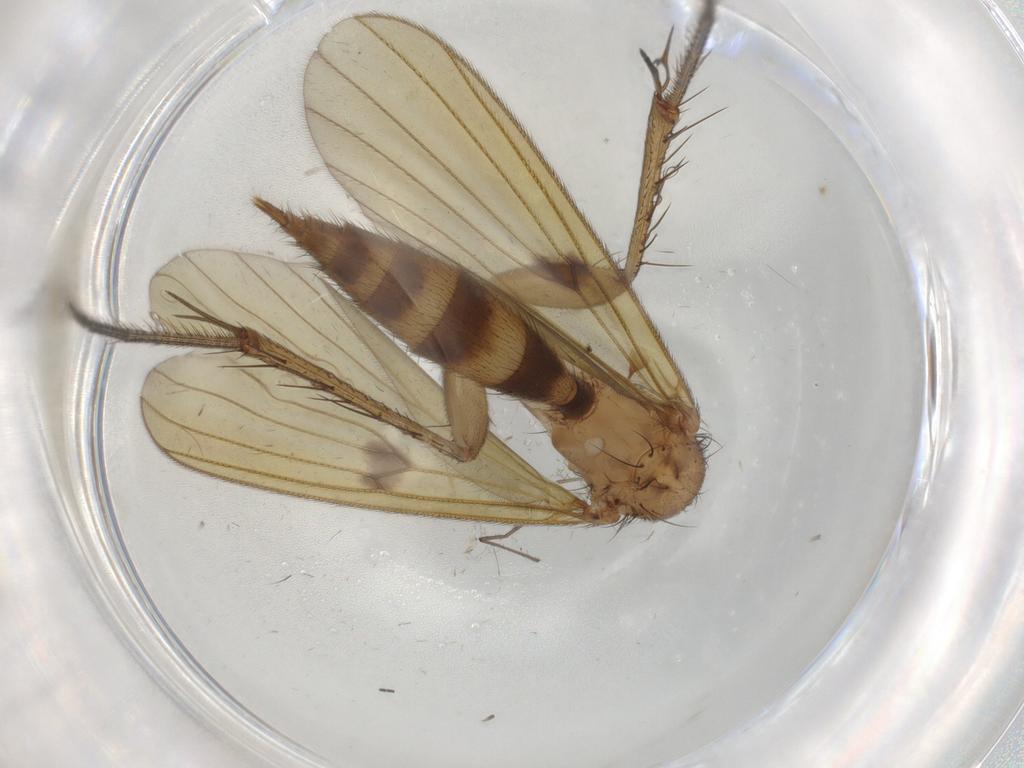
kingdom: Animalia
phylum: Arthropoda
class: Insecta
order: Diptera
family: Mycetophilidae
